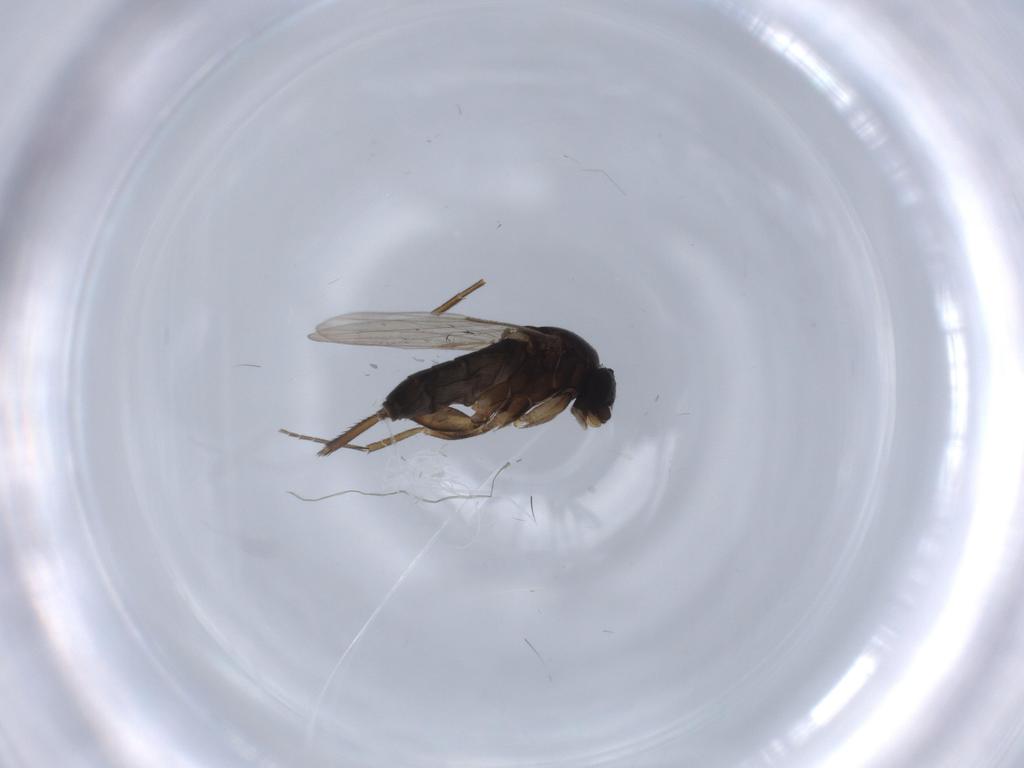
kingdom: Animalia
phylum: Arthropoda
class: Insecta
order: Diptera
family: Phoridae
